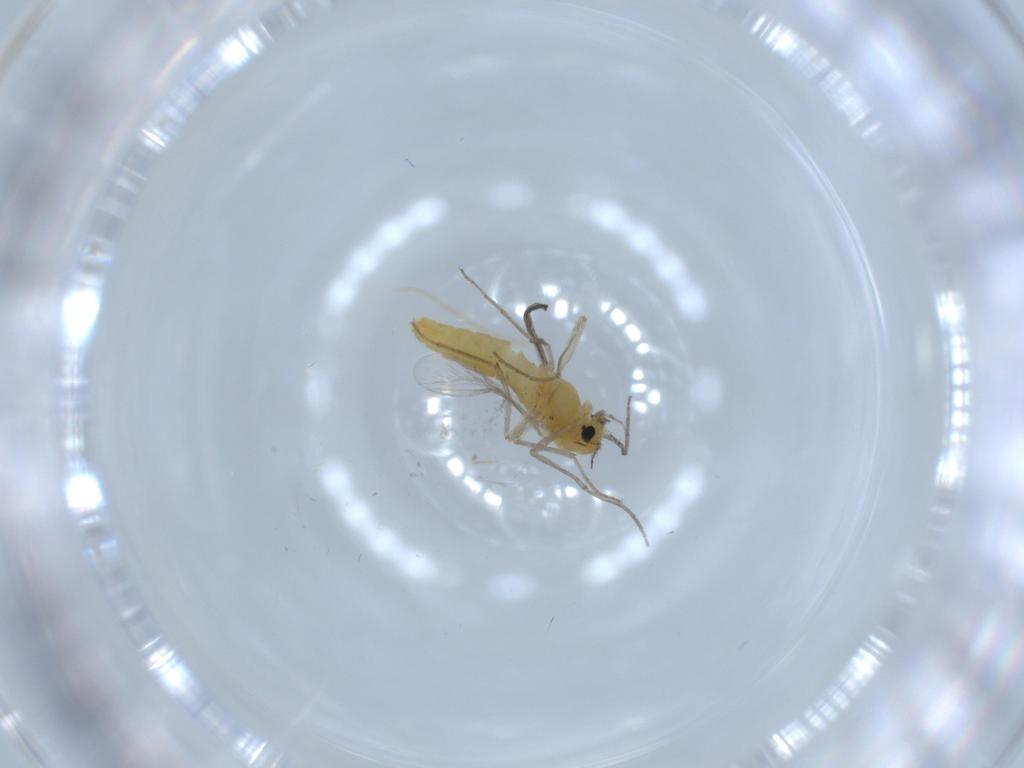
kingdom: Animalia
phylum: Arthropoda
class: Insecta
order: Diptera
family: Chironomidae
